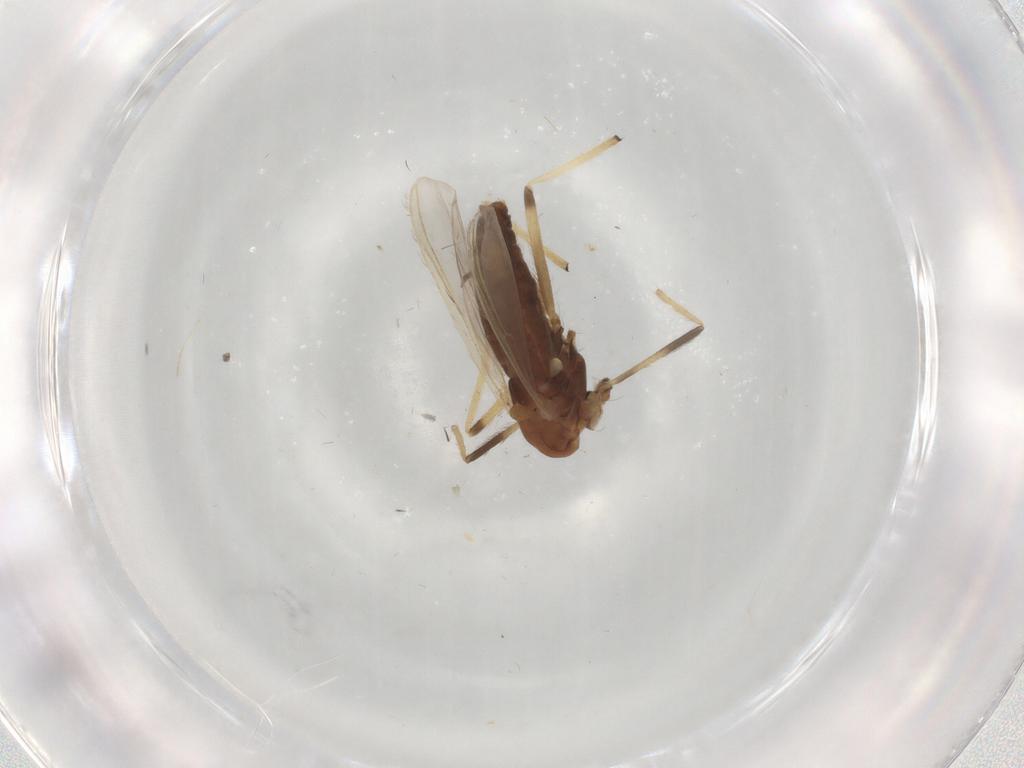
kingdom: Animalia
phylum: Arthropoda
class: Insecta
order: Diptera
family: Chironomidae
